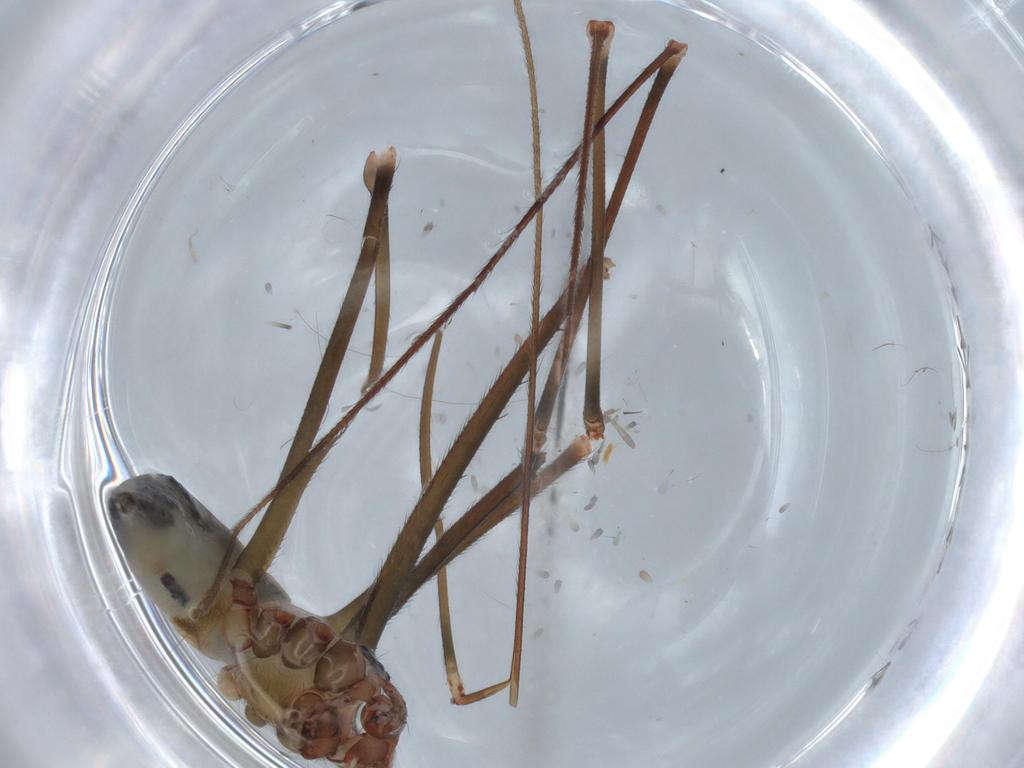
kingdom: Animalia
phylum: Arthropoda
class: Arachnida
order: Araneae
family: Pholcidae
